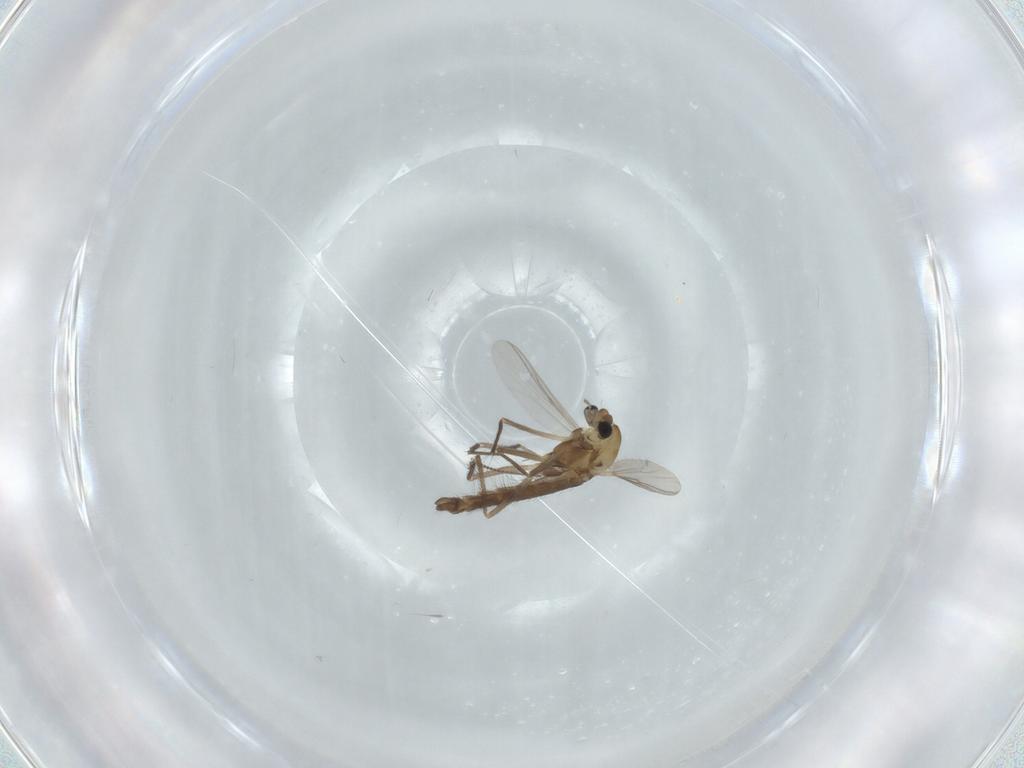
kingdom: Animalia
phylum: Arthropoda
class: Insecta
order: Diptera
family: Chironomidae
